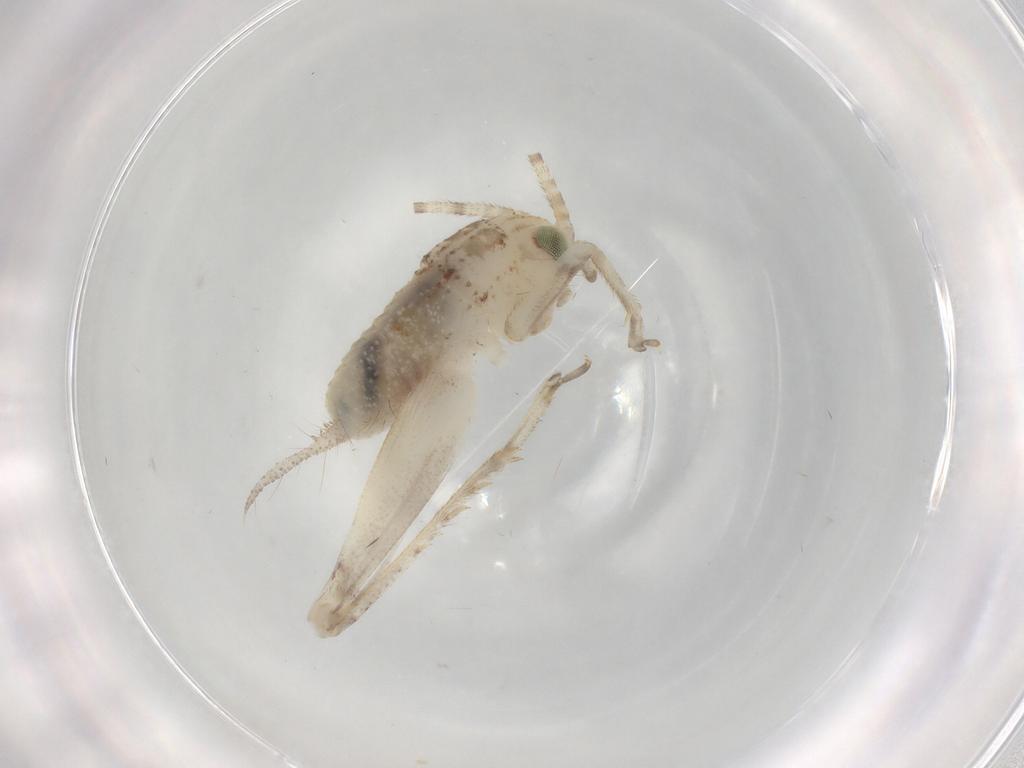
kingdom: Animalia
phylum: Arthropoda
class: Insecta
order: Orthoptera
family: Trigonidiidae
